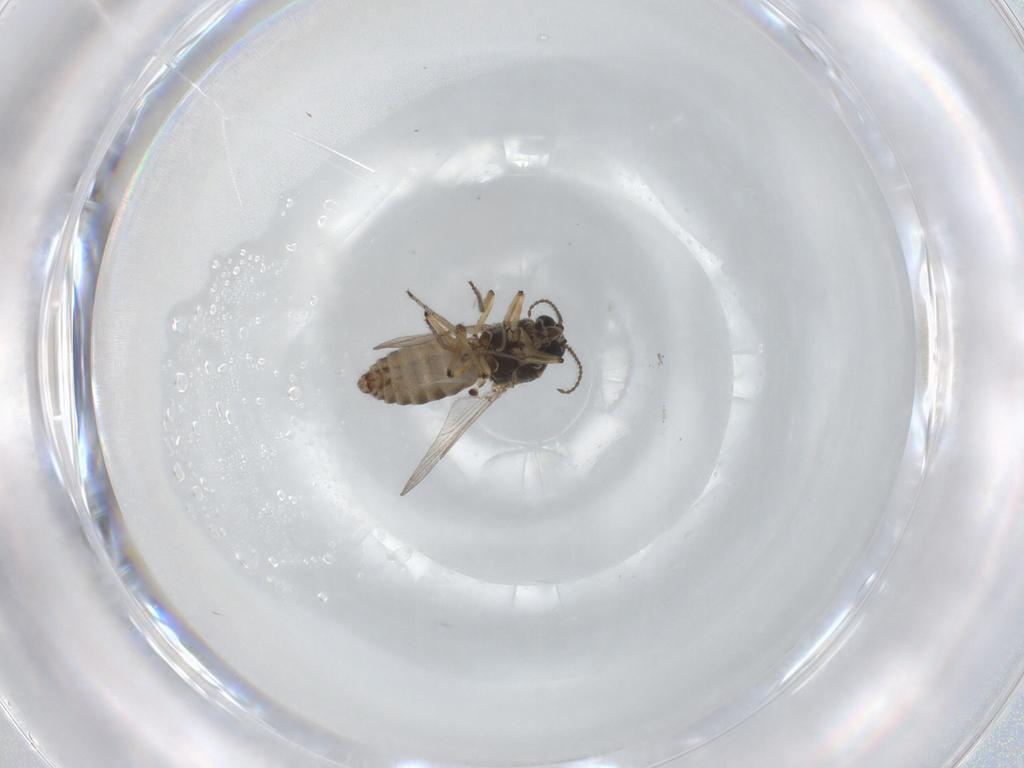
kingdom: Animalia
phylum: Arthropoda
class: Insecta
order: Diptera
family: Ceratopogonidae
